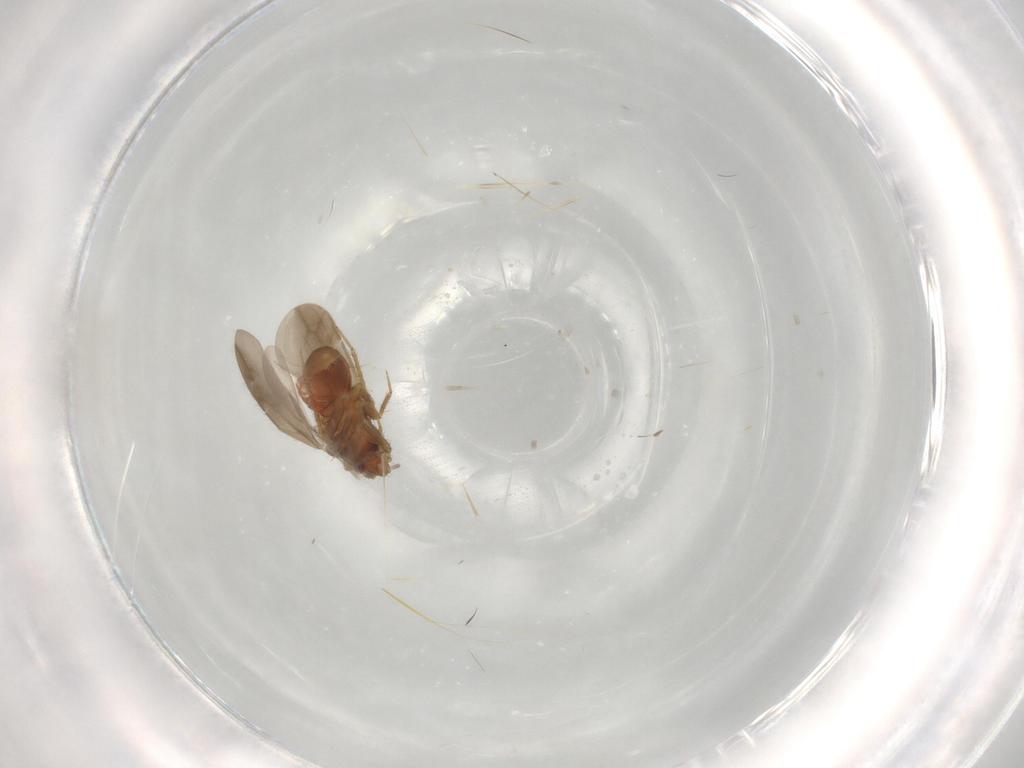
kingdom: Animalia
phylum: Arthropoda
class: Insecta
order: Hemiptera
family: Ceratocombidae
